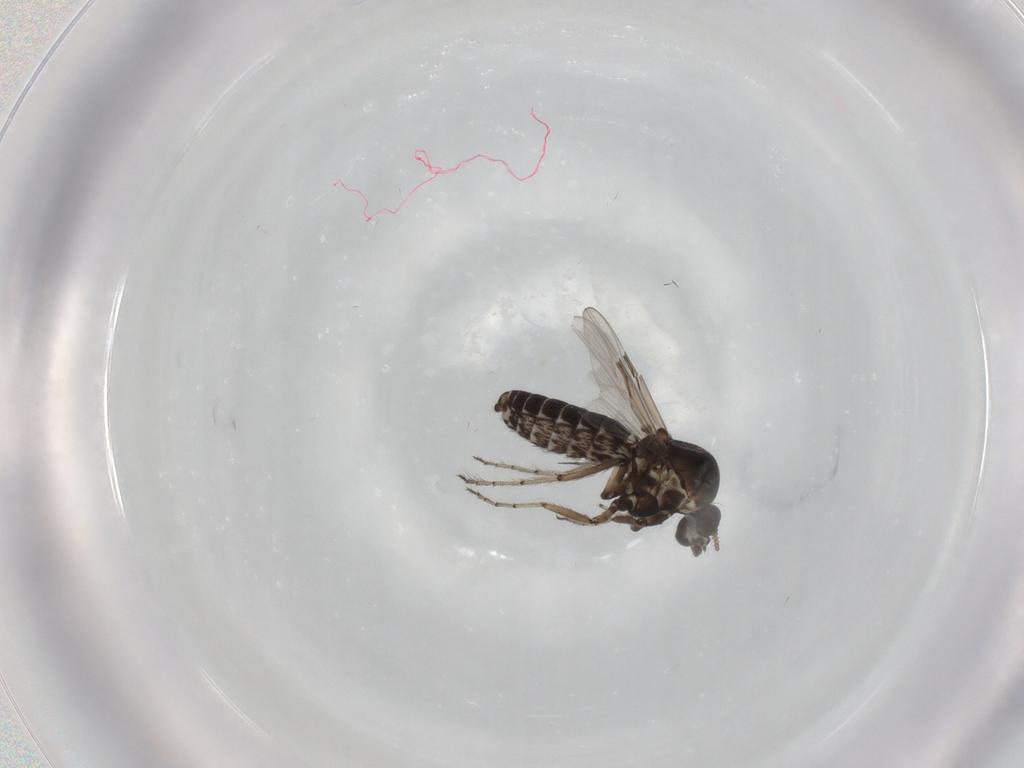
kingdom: Animalia
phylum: Arthropoda
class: Insecta
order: Diptera
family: Ceratopogonidae
